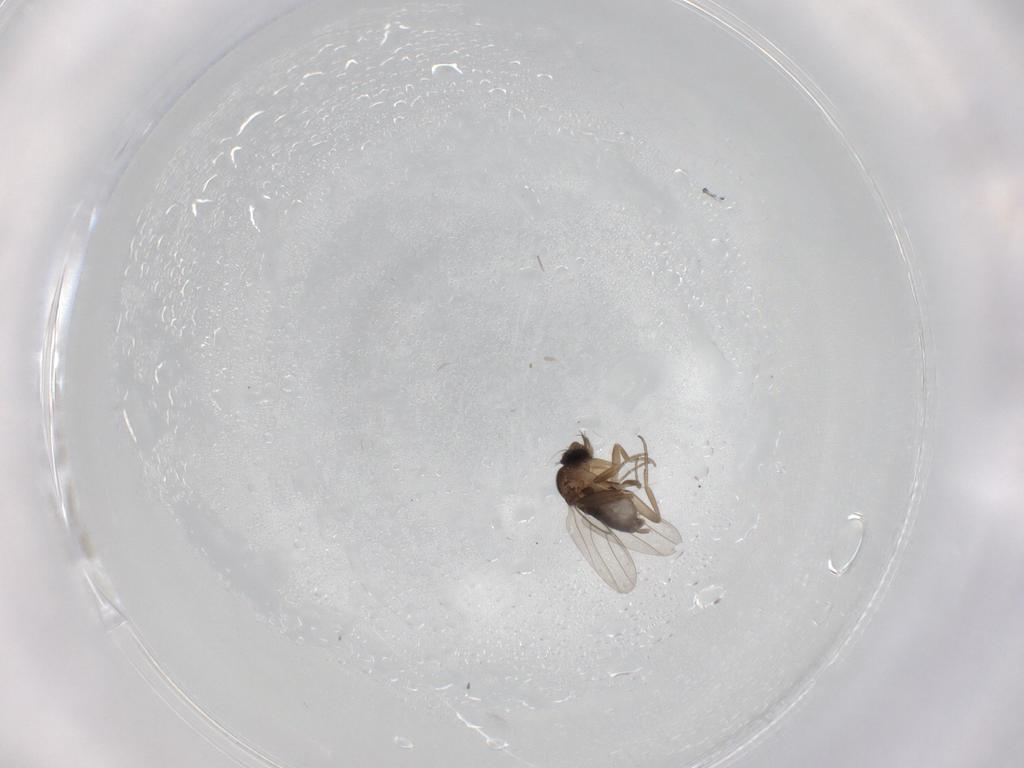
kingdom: Animalia
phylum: Arthropoda
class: Insecta
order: Diptera
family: Phoridae
